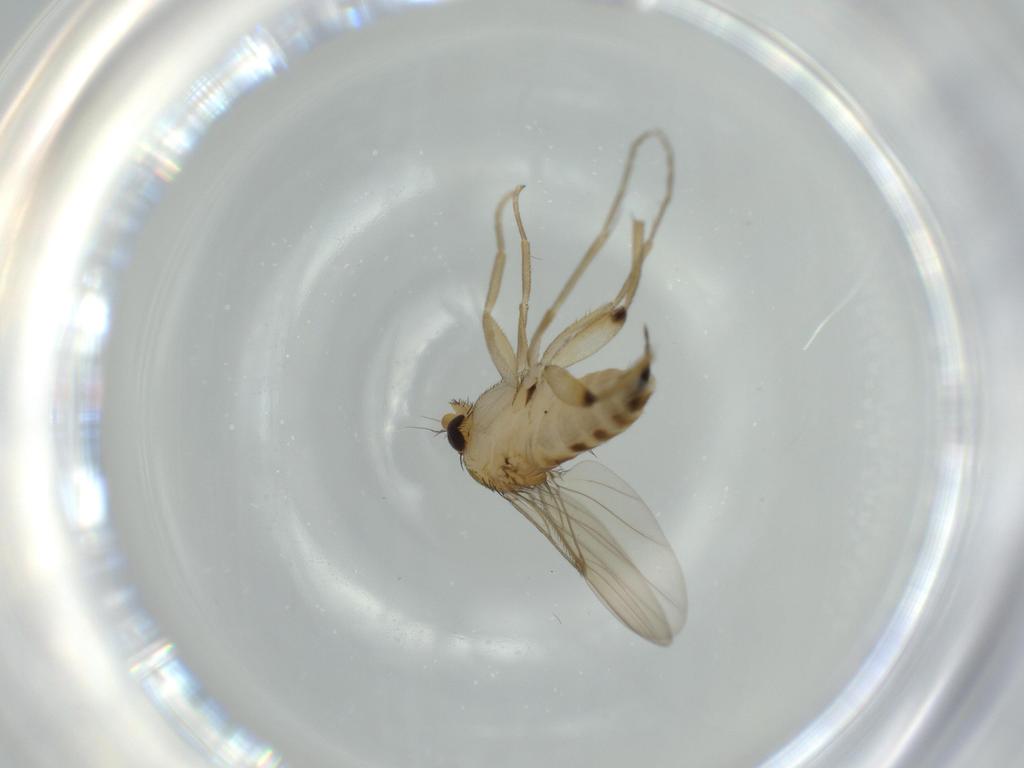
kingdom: Animalia
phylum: Arthropoda
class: Insecta
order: Diptera
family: Phoridae
